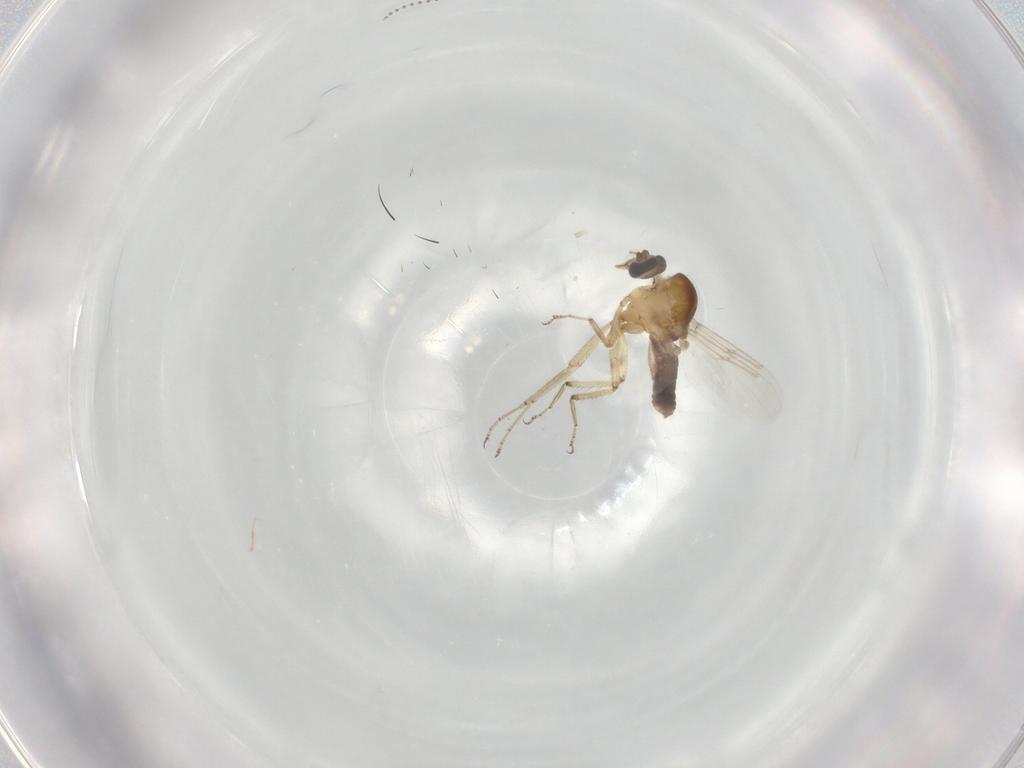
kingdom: Animalia
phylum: Arthropoda
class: Insecta
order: Diptera
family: Ceratopogonidae
